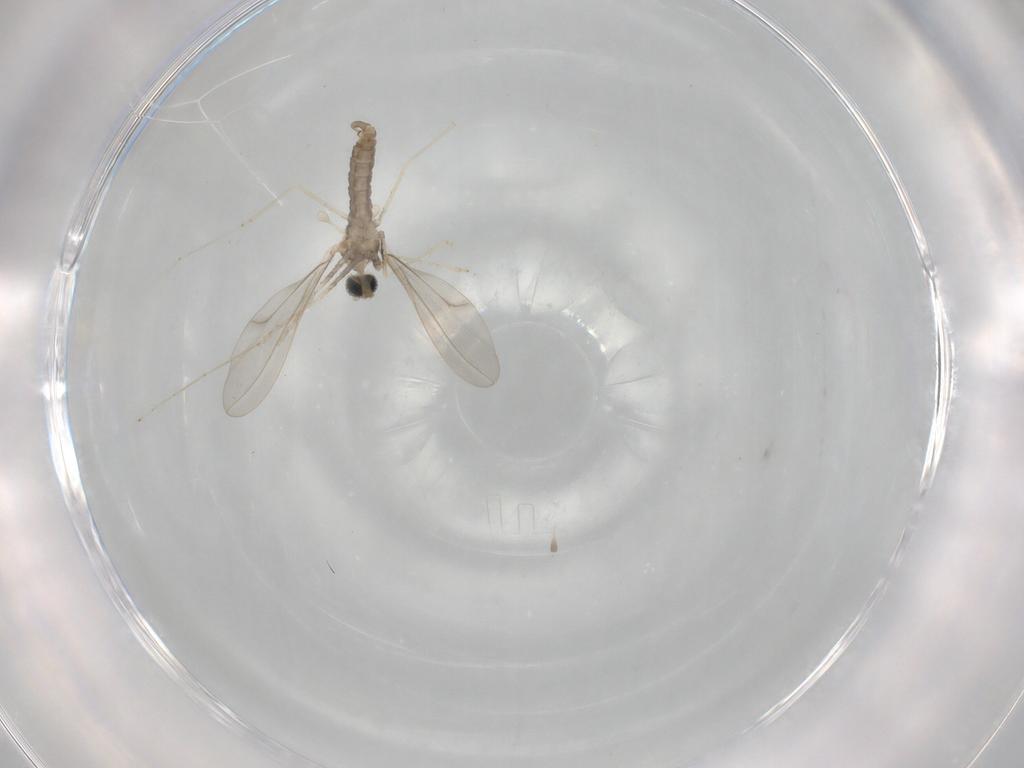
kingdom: Animalia
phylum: Arthropoda
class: Insecta
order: Diptera
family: Cecidomyiidae
